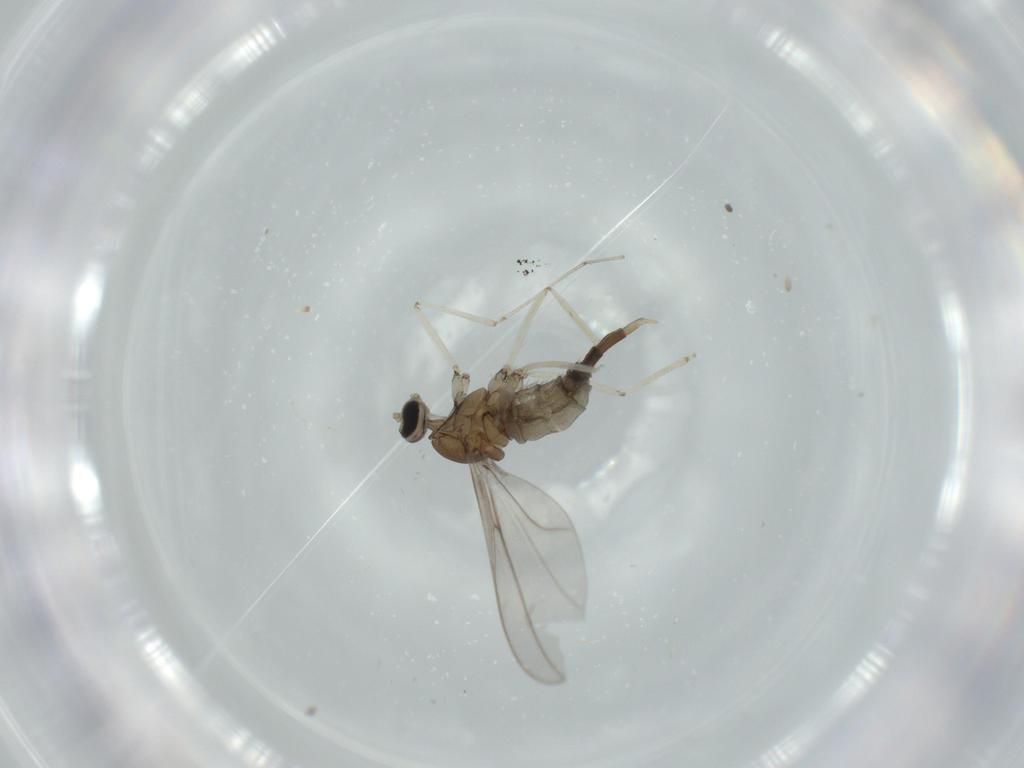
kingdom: Animalia
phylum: Arthropoda
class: Insecta
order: Diptera
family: Cecidomyiidae
